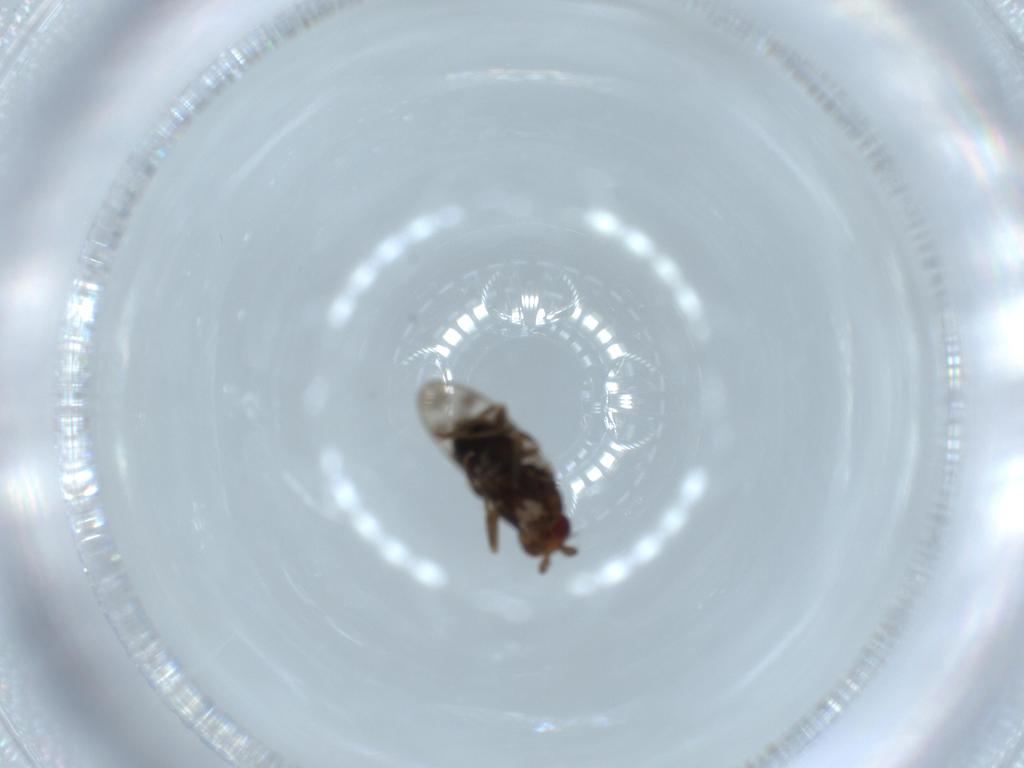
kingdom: Animalia
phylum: Arthropoda
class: Insecta
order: Diptera
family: Sphaeroceridae
